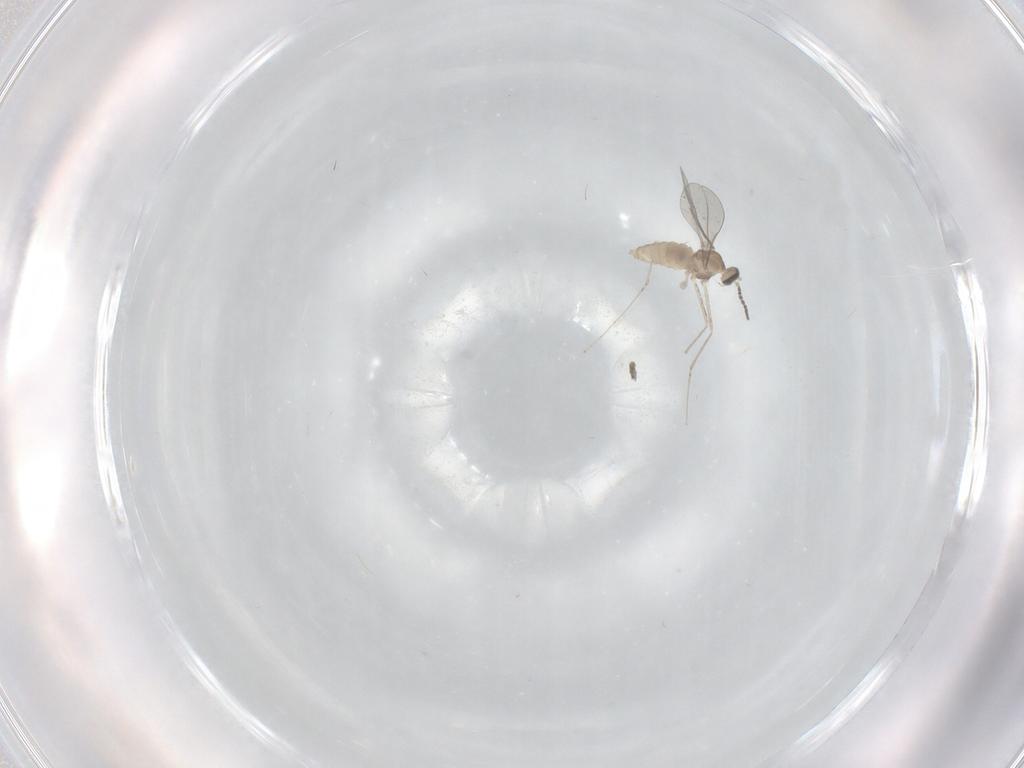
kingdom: Animalia
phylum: Arthropoda
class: Insecta
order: Diptera
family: Cecidomyiidae
